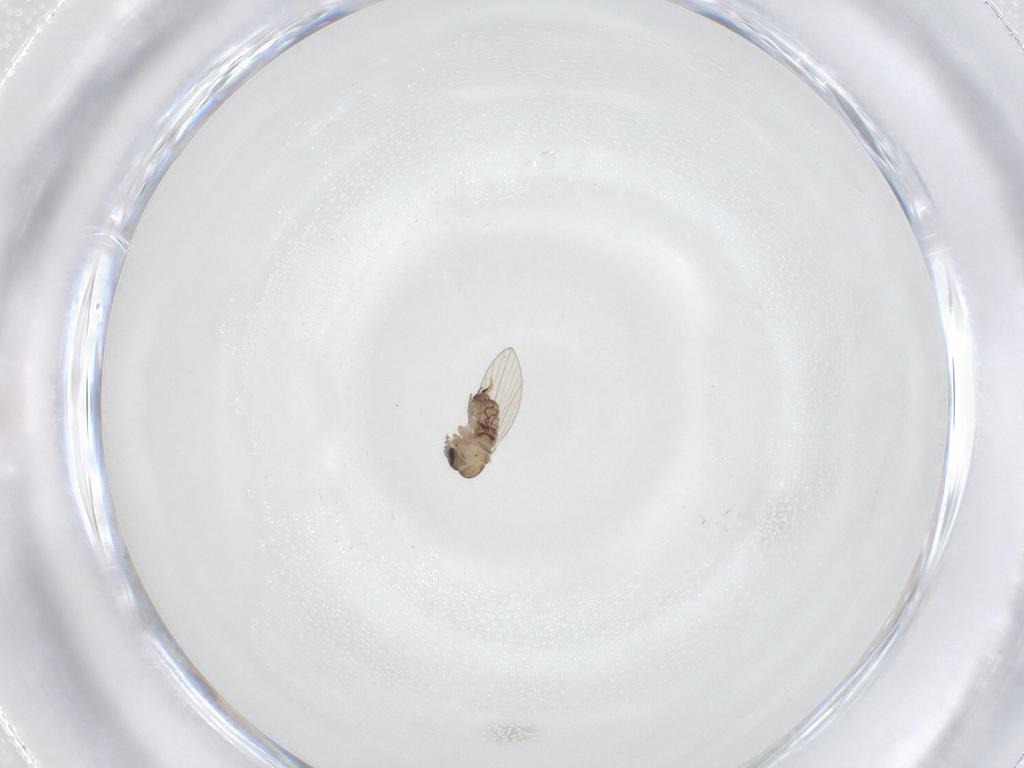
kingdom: Animalia
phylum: Arthropoda
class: Insecta
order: Diptera
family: Psychodidae
